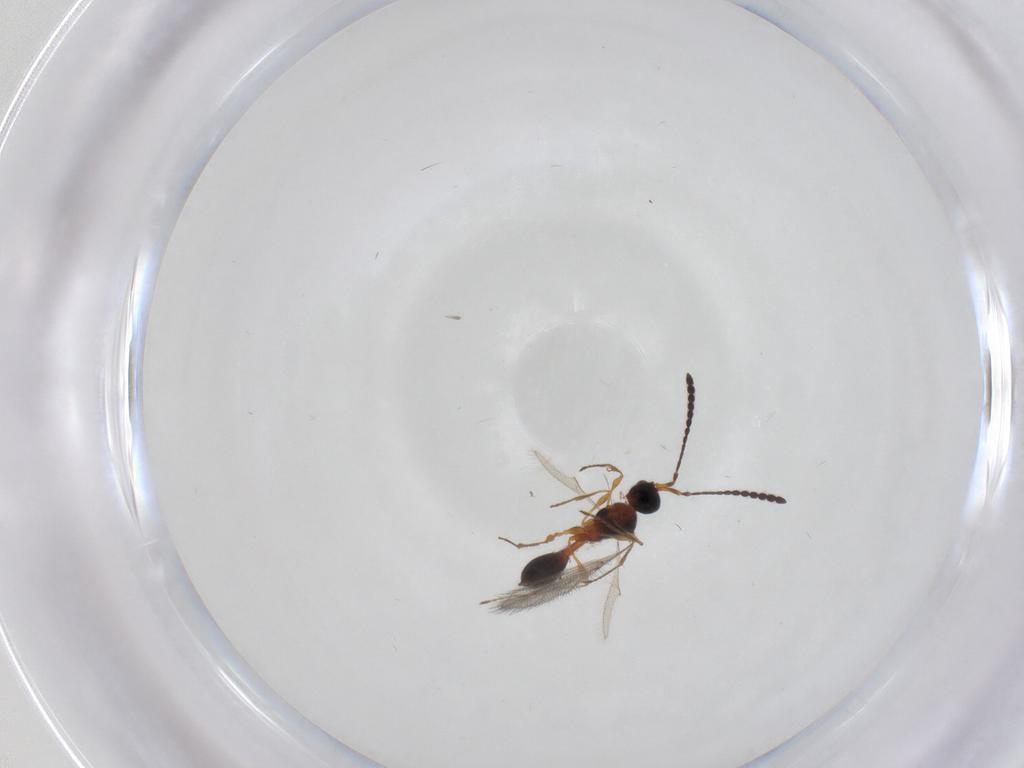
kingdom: Animalia
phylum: Arthropoda
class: Insecta
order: Hymenoptera
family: Diapriidae
